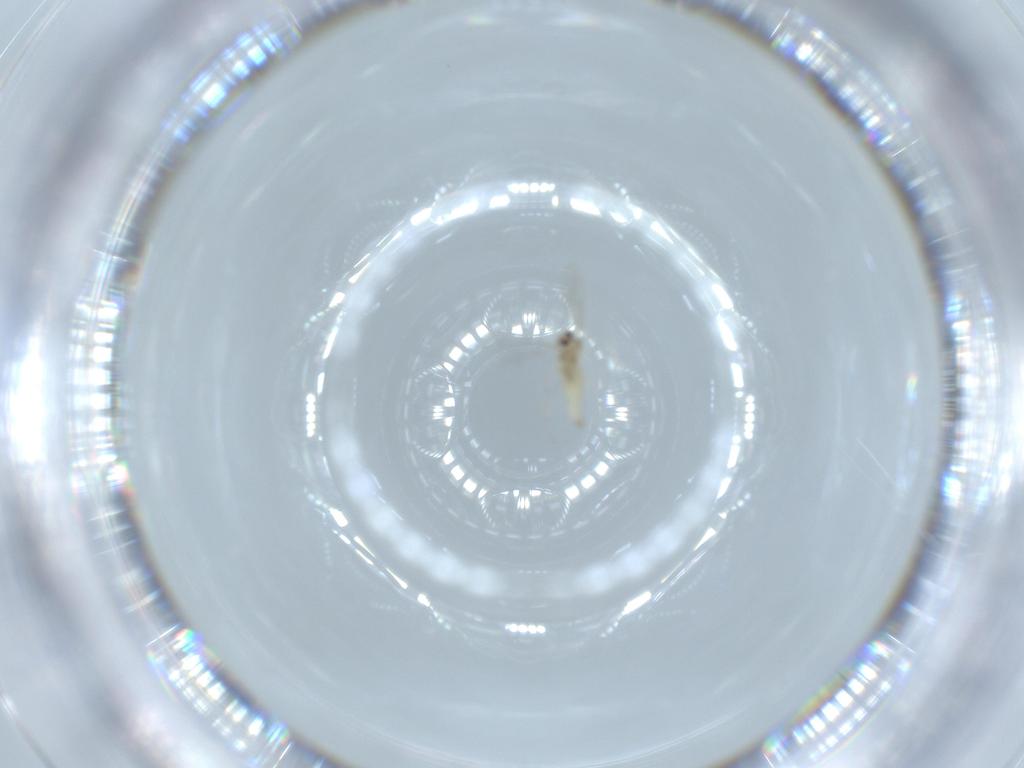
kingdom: Animalia
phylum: Arthropoda
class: Insecta
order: Diptera
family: Cecidomyiidae
